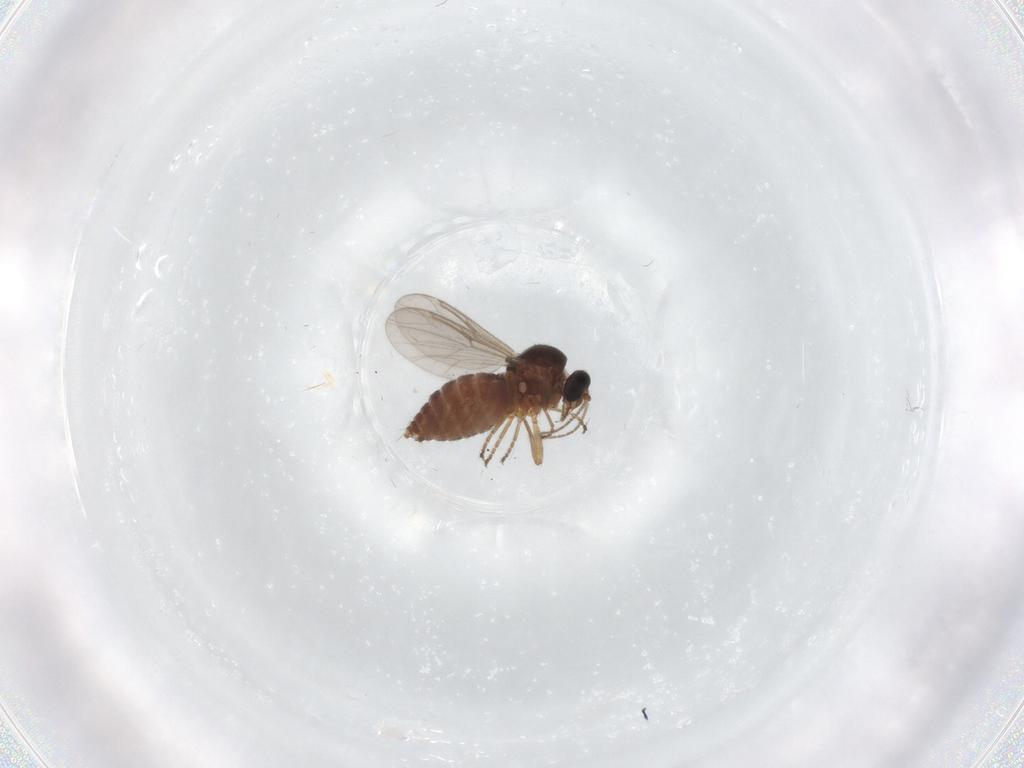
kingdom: Animalia
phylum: Arthropoda
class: Insecta
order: Diptera
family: Ceratopogonidae
